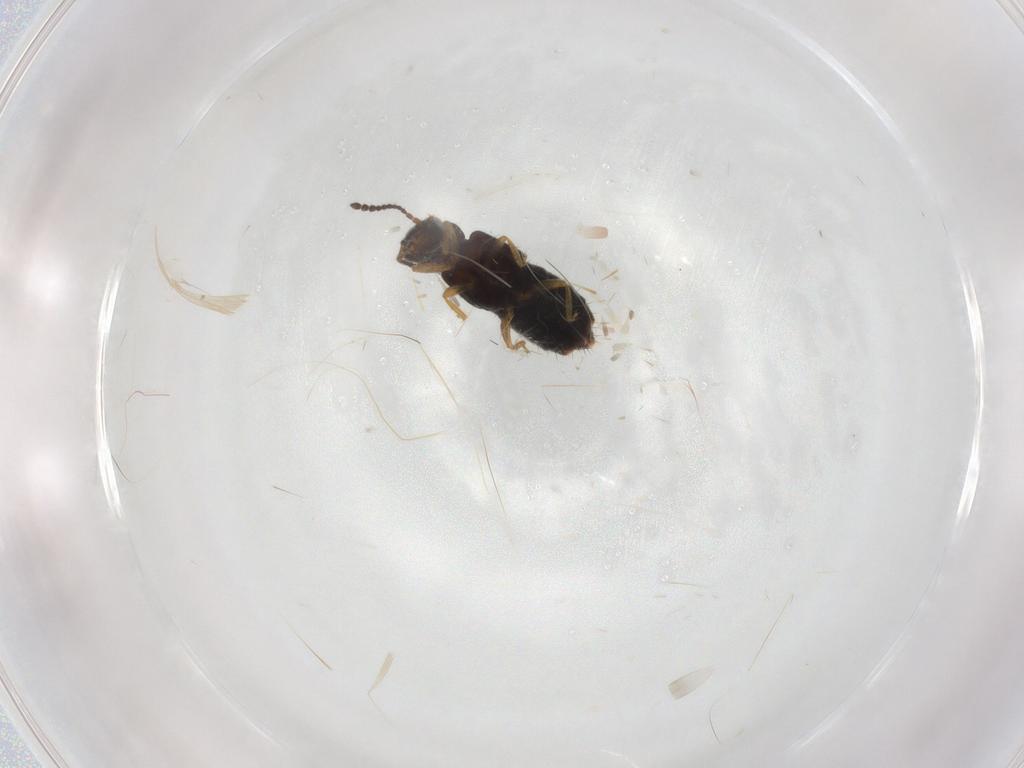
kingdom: Animalia
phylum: Arthropoda
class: Insecta
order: Coleoptera
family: Staphylinidae
